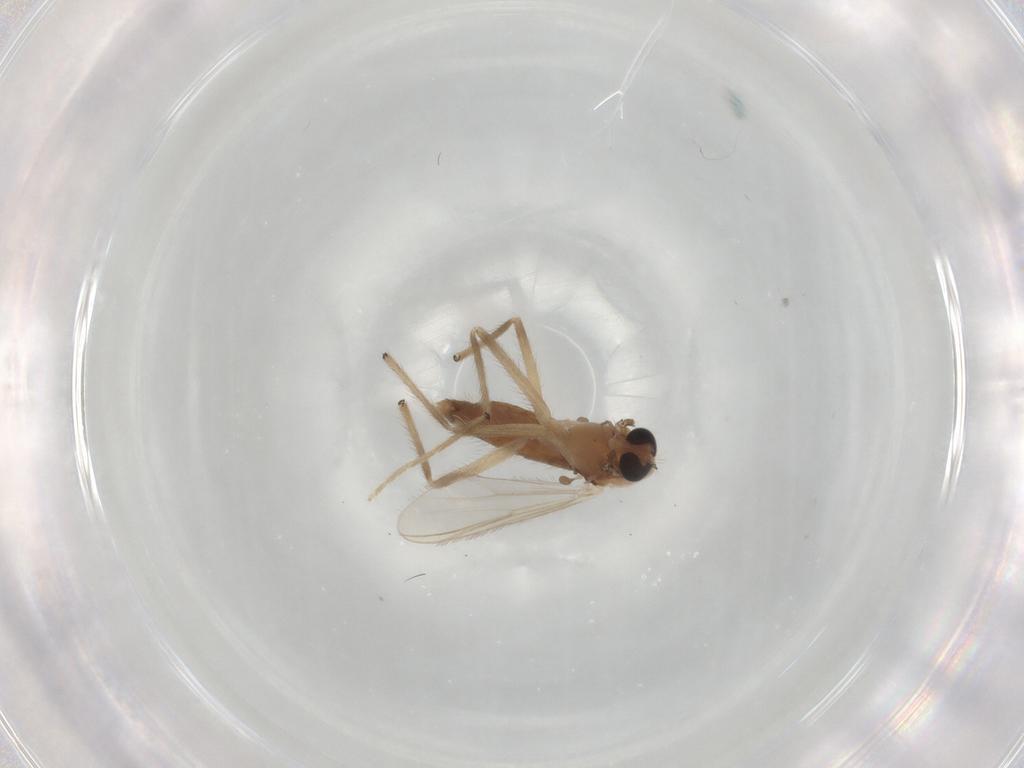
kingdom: Animalia
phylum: Arthropoda
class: Insecta
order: Diptera
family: Chironomidae
